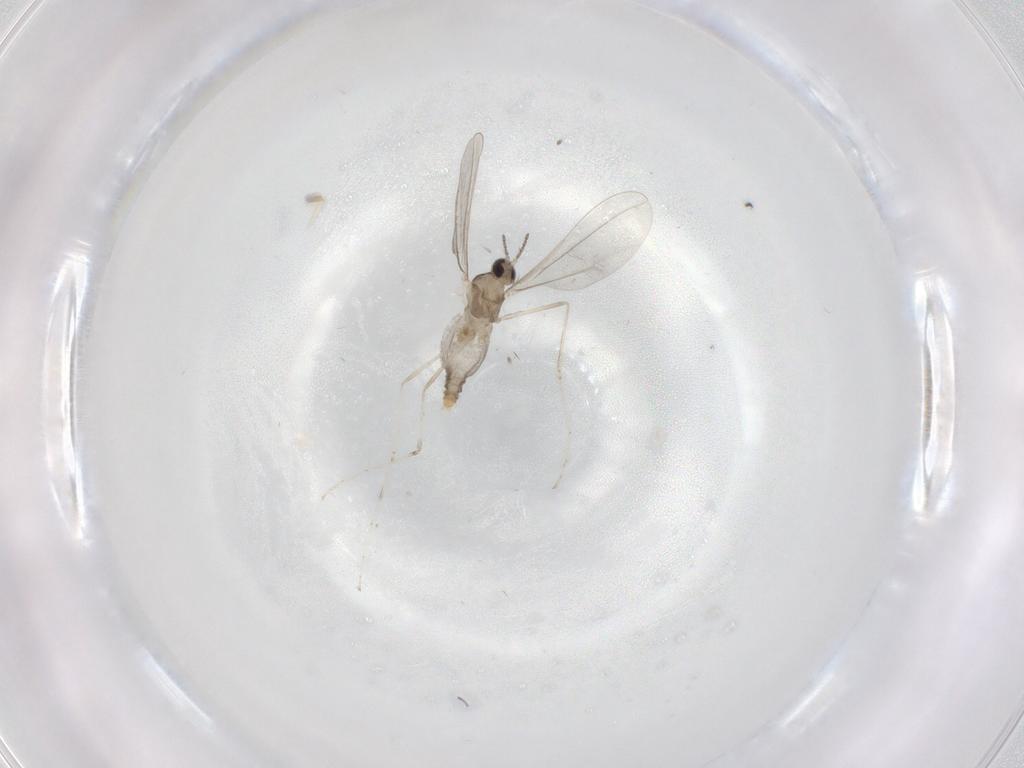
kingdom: Animalia
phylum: Arthropoda
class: Insecta
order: Diptera
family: Cecidomyiidae
